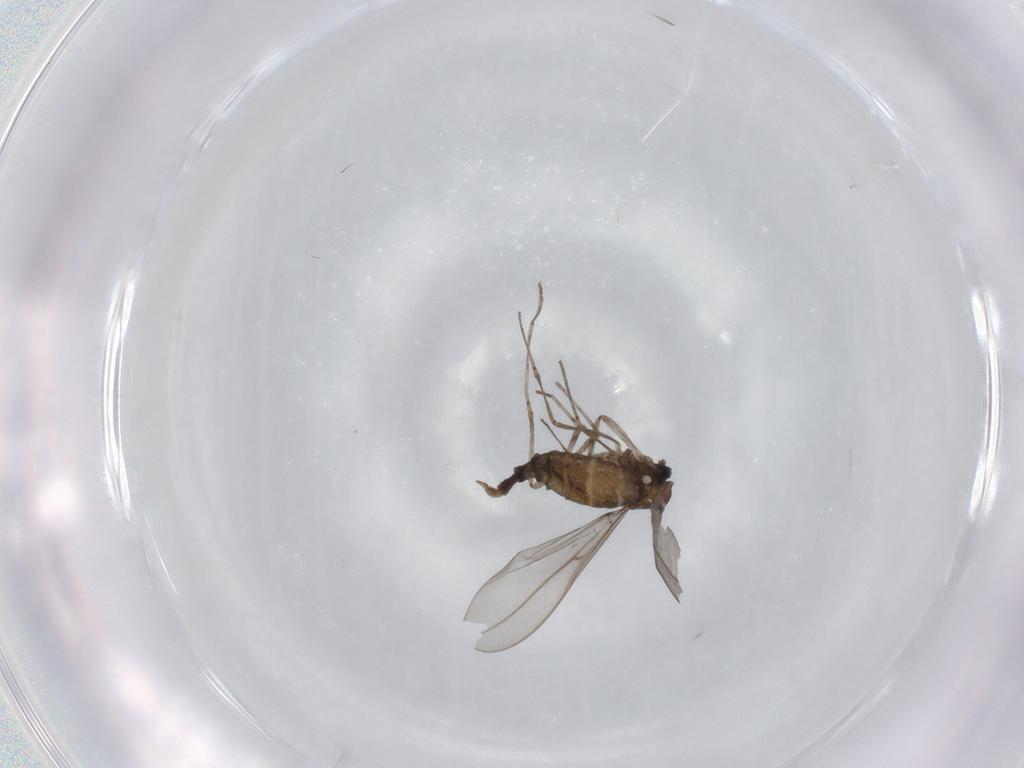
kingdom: Animalia
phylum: Arthropoda
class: Insecta
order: Diptera
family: Cecidomyiidae
